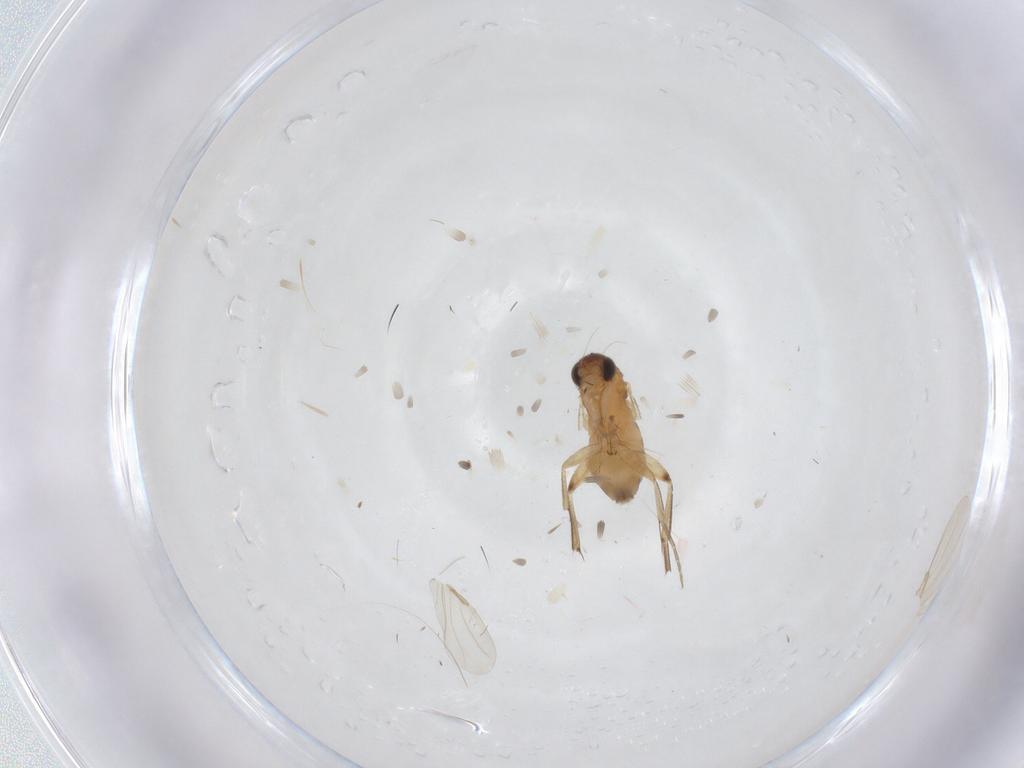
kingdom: Animalia
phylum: Arthropoda
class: Insecta
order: Diptera
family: Phoridae
